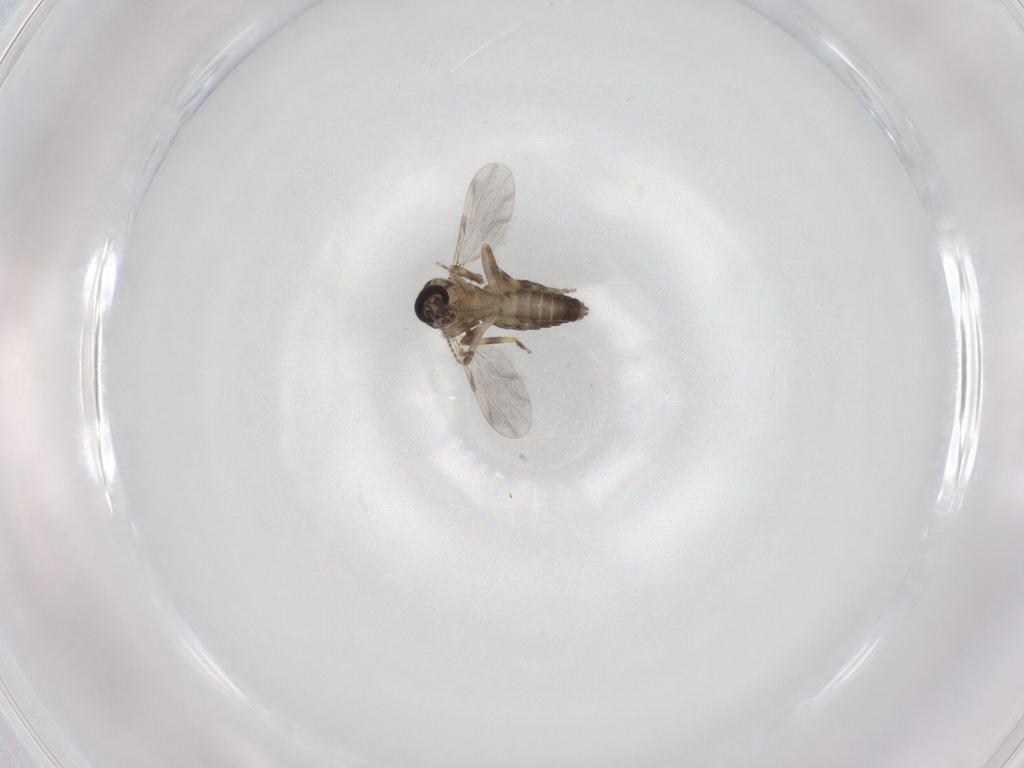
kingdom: Animalia
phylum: Arthropoda
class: Insecta
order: Diptera
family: Ceratopogonidae
